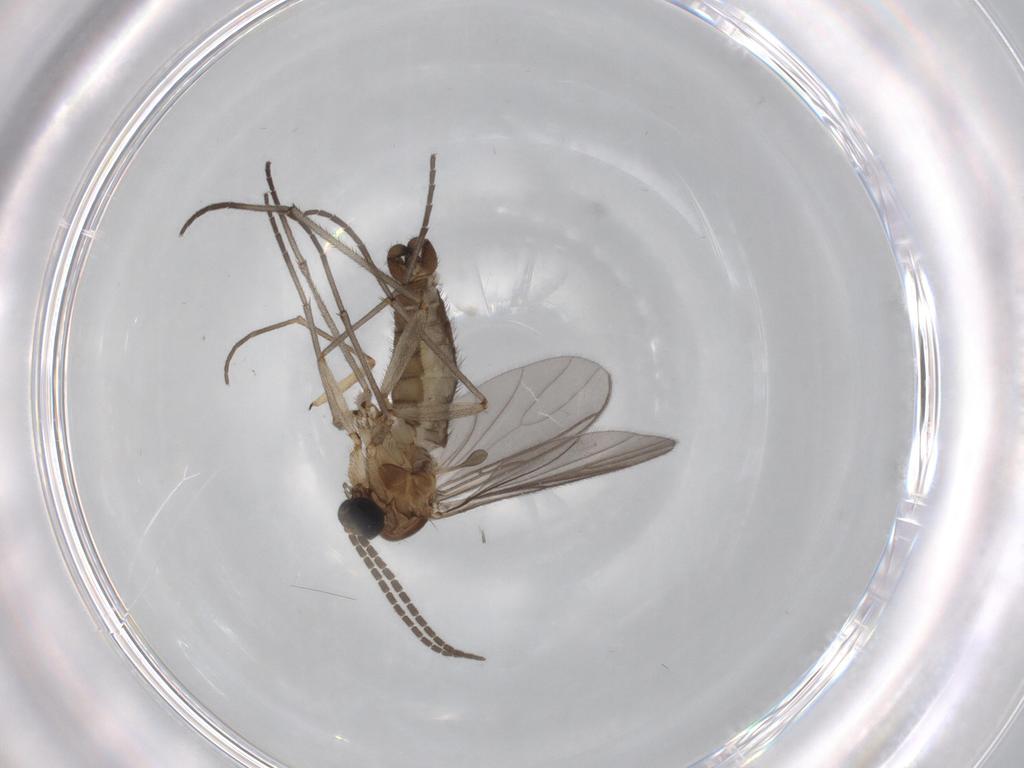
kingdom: Animalia
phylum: Arthropoda
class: Insecta
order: Diptera
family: Sciaridae
